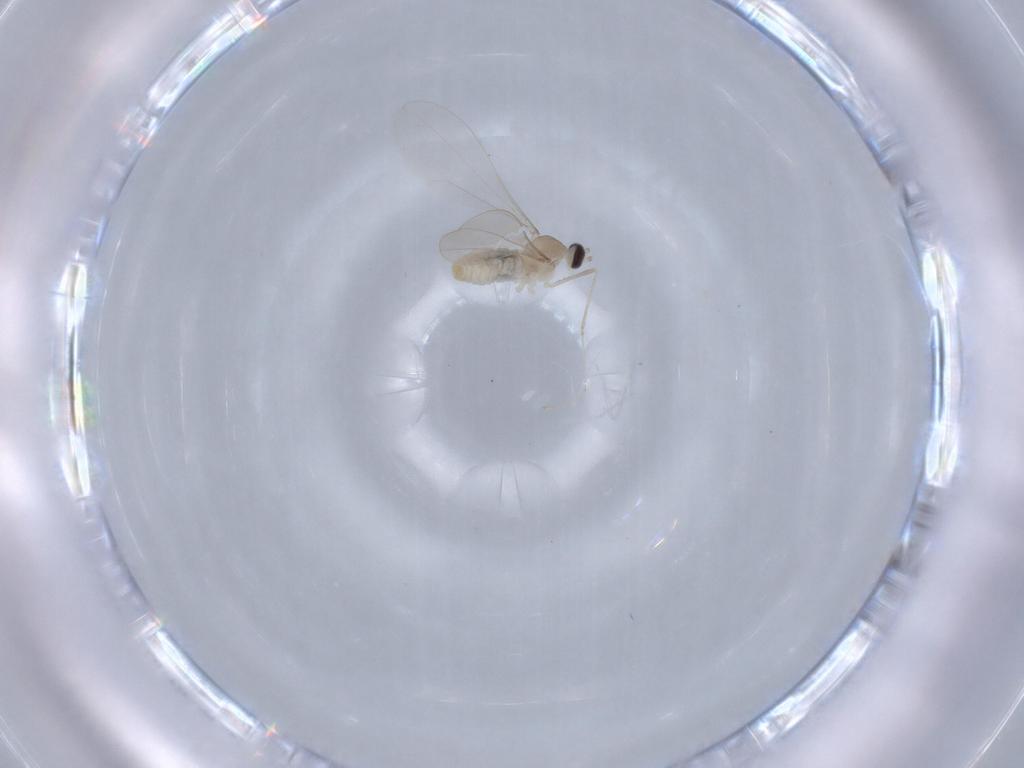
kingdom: Animalia
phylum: Arthropoda
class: Insecta
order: Diptera
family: Cecidomyiidae
